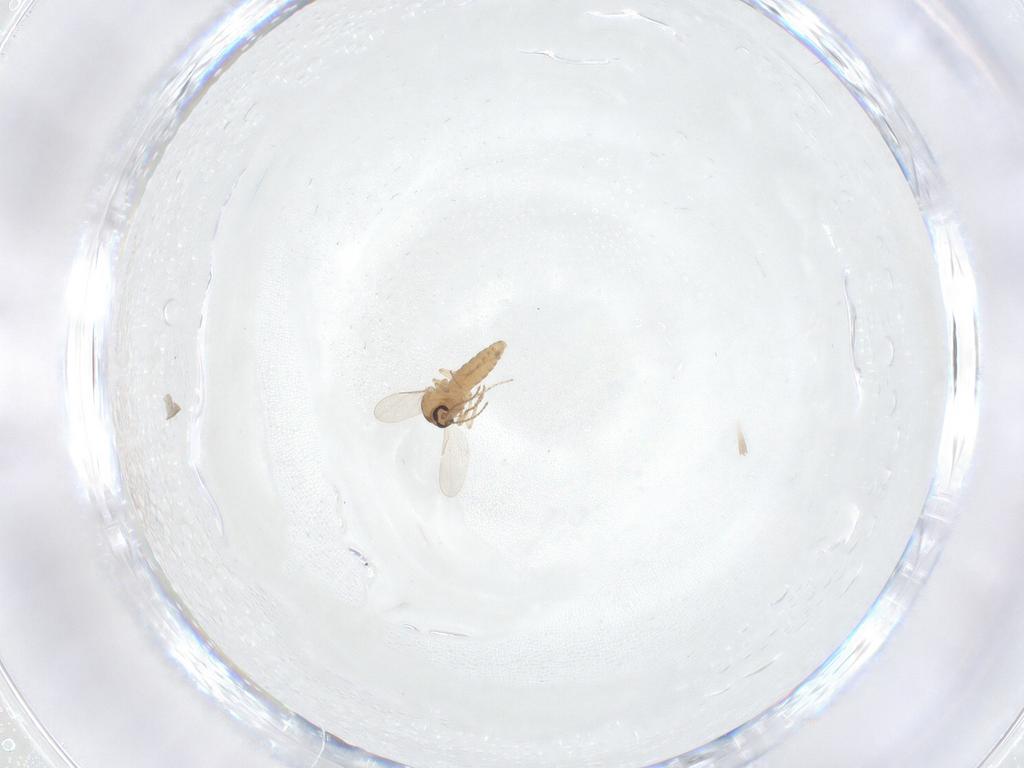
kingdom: Animalia
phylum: Arthropoda
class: Insecta
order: Diptera
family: Ceratopogonidae
